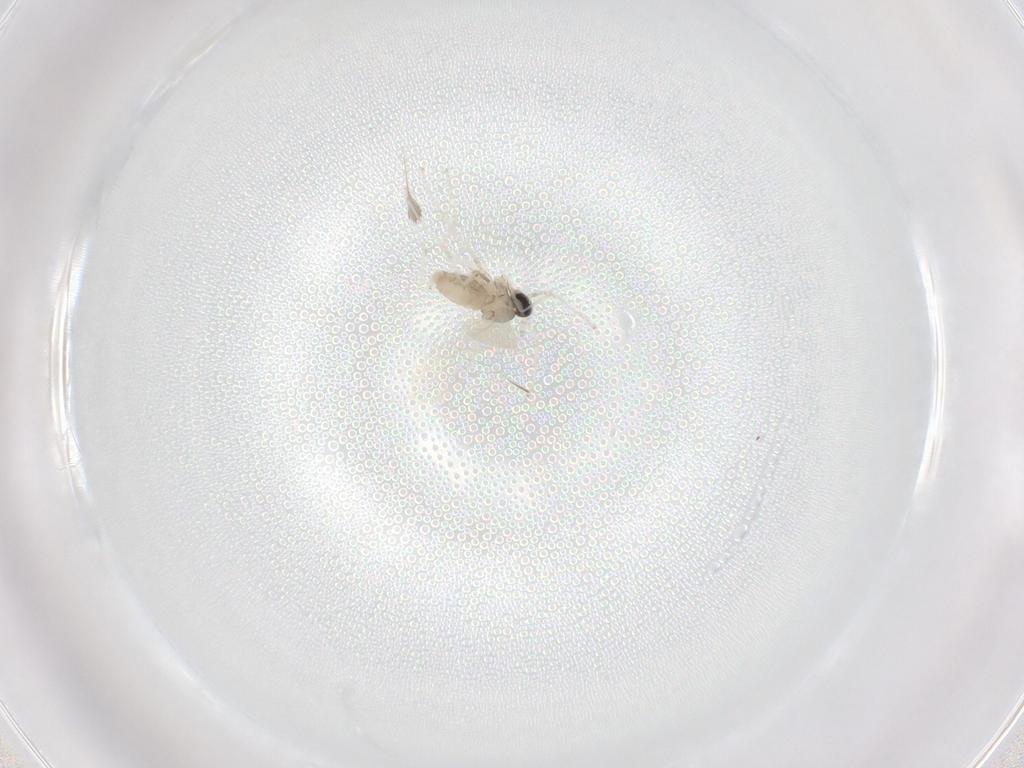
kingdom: Animalia
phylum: Arthropoda
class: Insecta
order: Diptera
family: Cecidomyiidae
